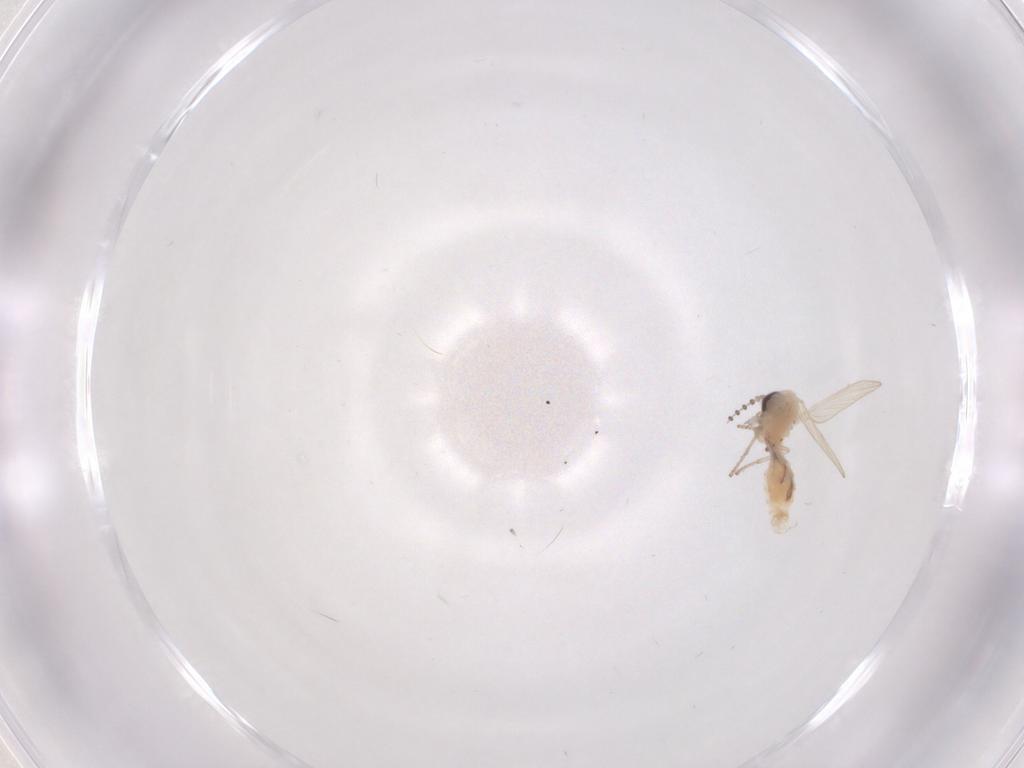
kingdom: Animalia
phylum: Arthropoda
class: Insecta
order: Diptera
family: Psychodidae
